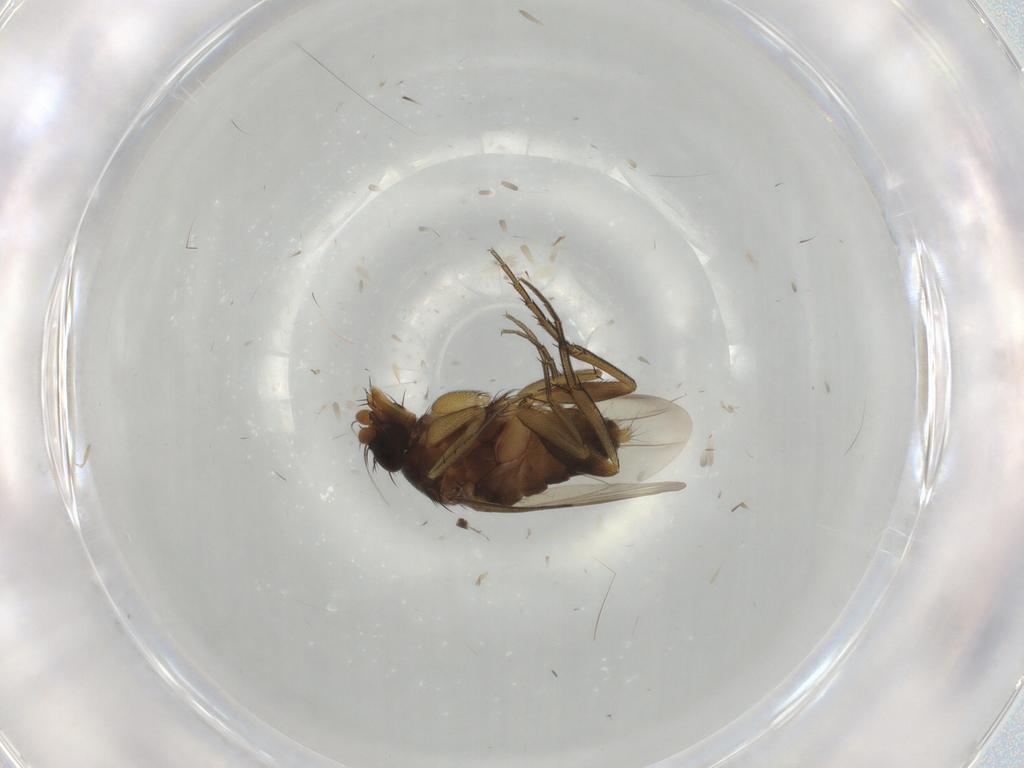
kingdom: Animalia
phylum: Arthropoda
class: Insecta
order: Diptera
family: Phoridae
